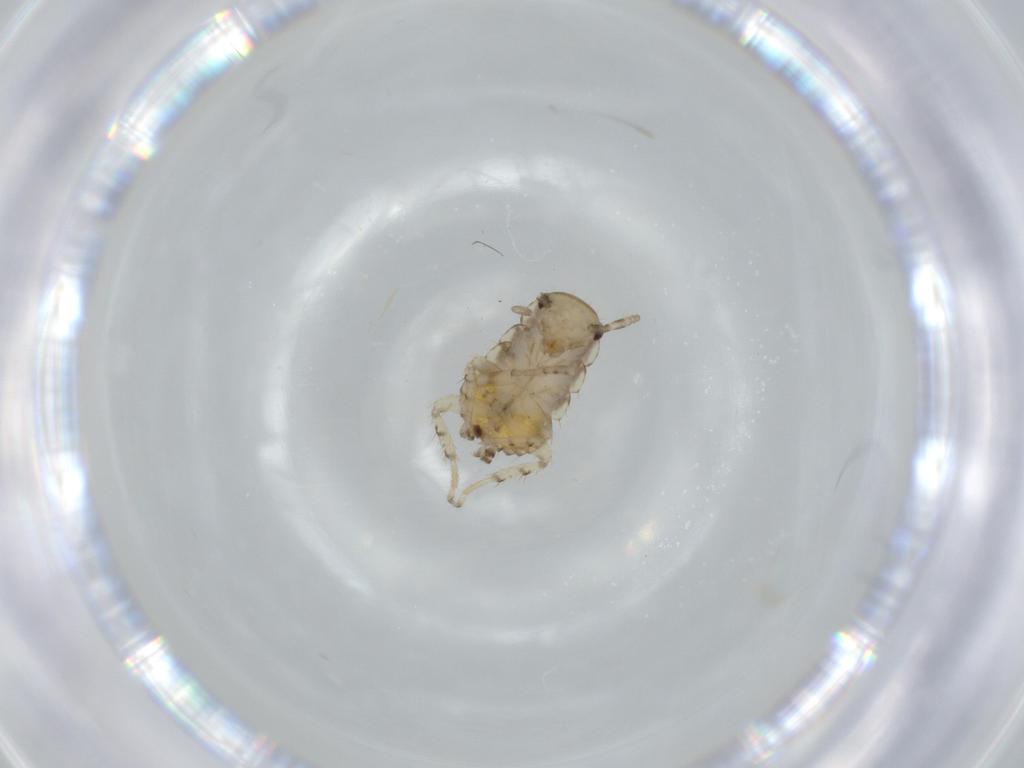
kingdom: Animalia
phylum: Arthropoda
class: Insecta
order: Blattodea
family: Ectobiidae
